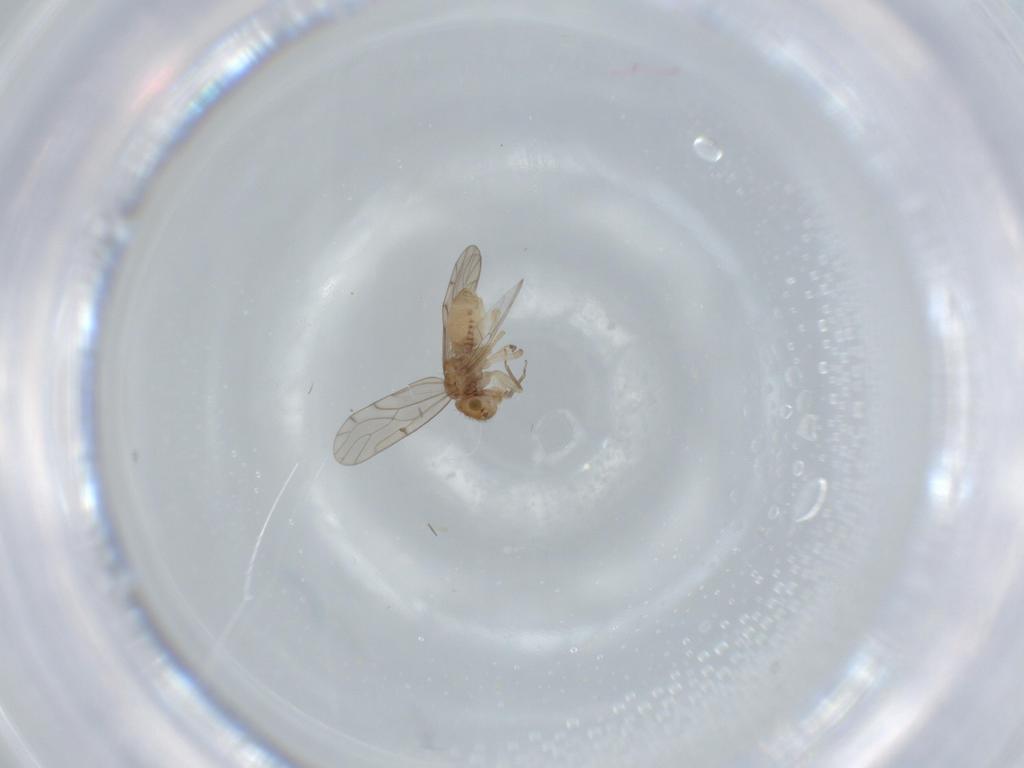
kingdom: Animalia
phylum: Arthropoda
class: Insecta
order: Psocodea
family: Ectopsocidae
